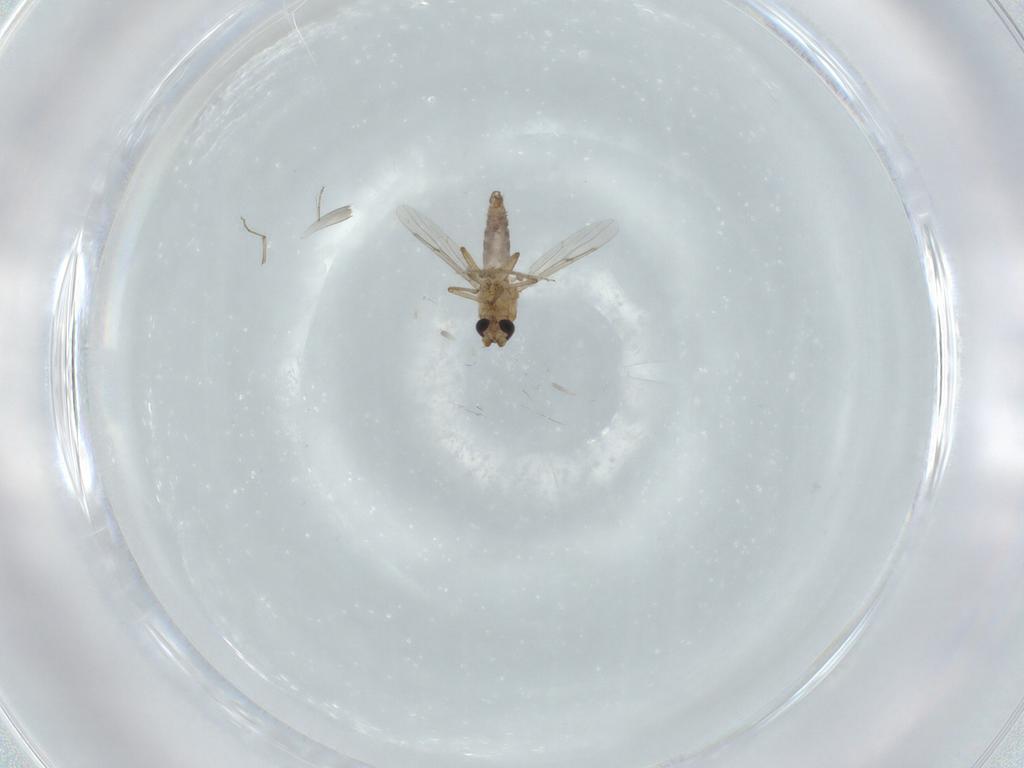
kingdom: Animalia
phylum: Arthropoda
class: Insecta
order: Diptera
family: Ceratopogonidae
